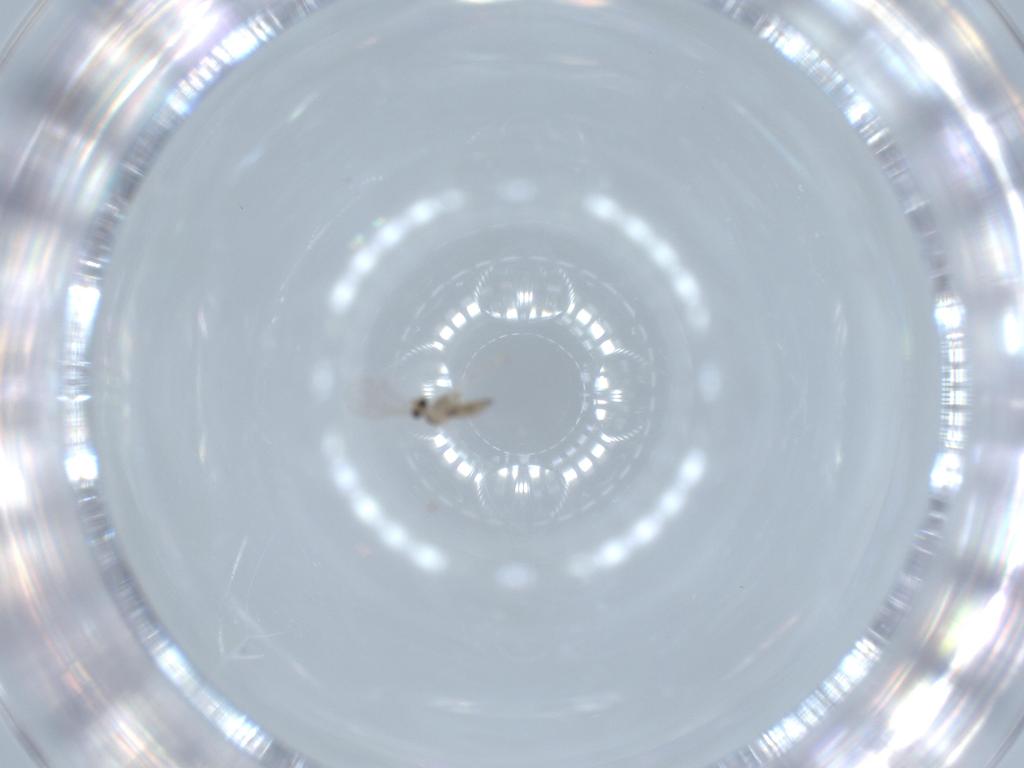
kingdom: Animalia
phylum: Arthropoda
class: Insecta
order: Diptera
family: Cecidomyiidae
